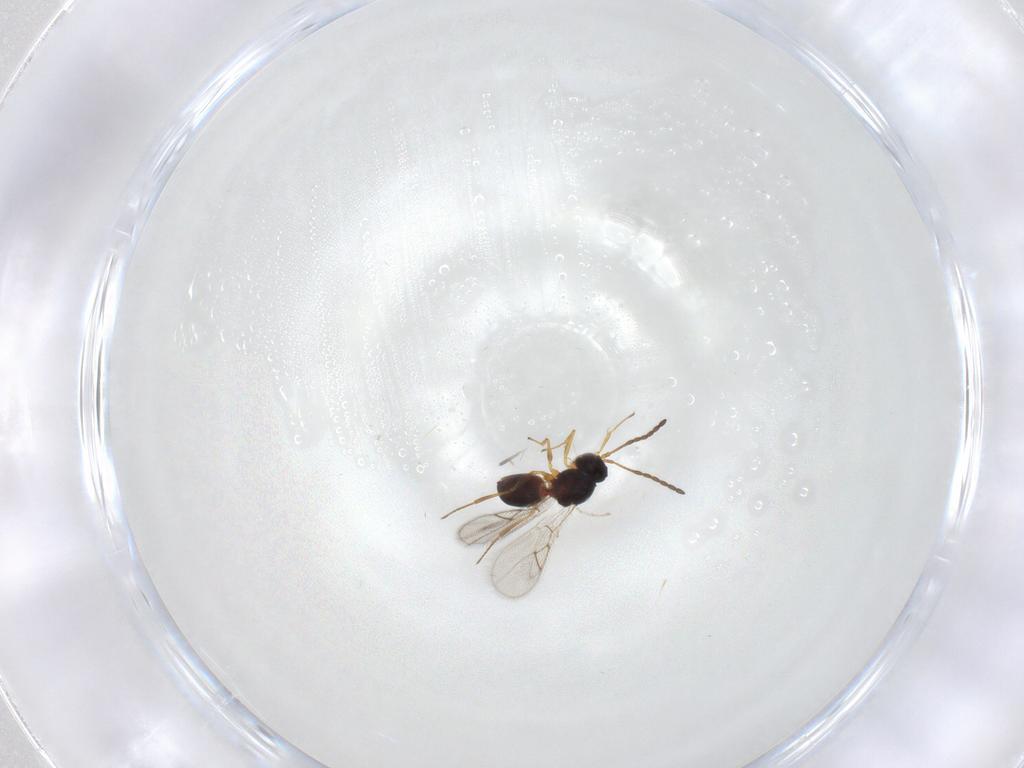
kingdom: Animalia
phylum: Arthropoda
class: Insecta
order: Hymenoptera
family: Figitidae
